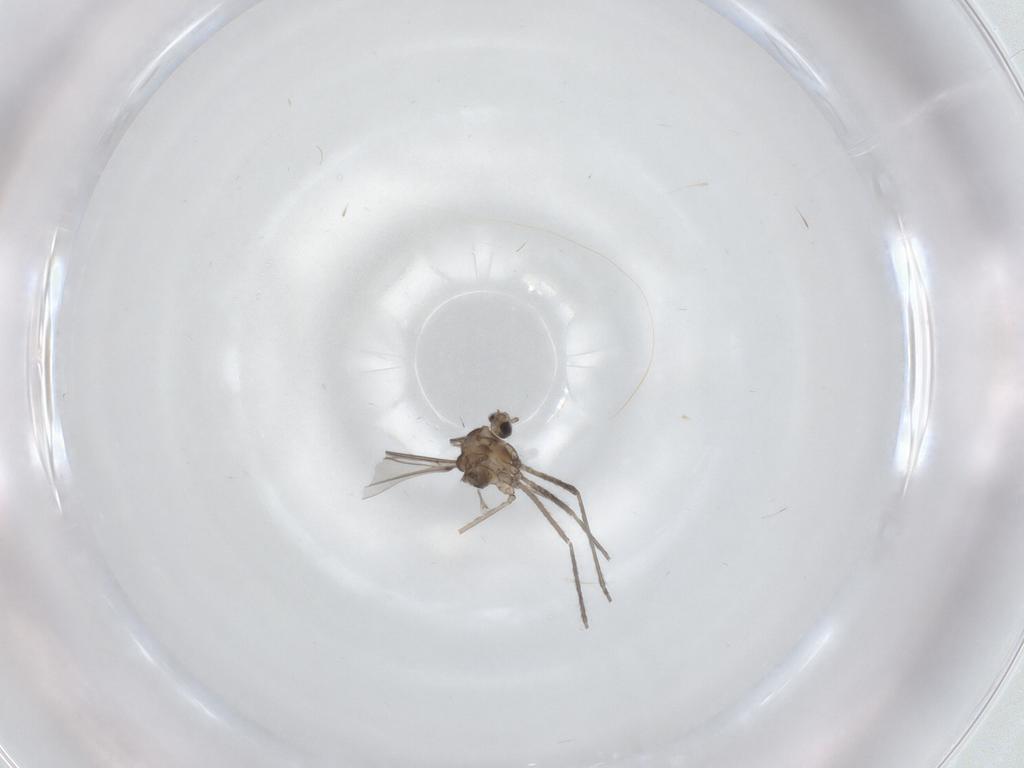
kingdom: Animalia
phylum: Arthropoda
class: Insecta
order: Diptera
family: Cecidomyiidae
